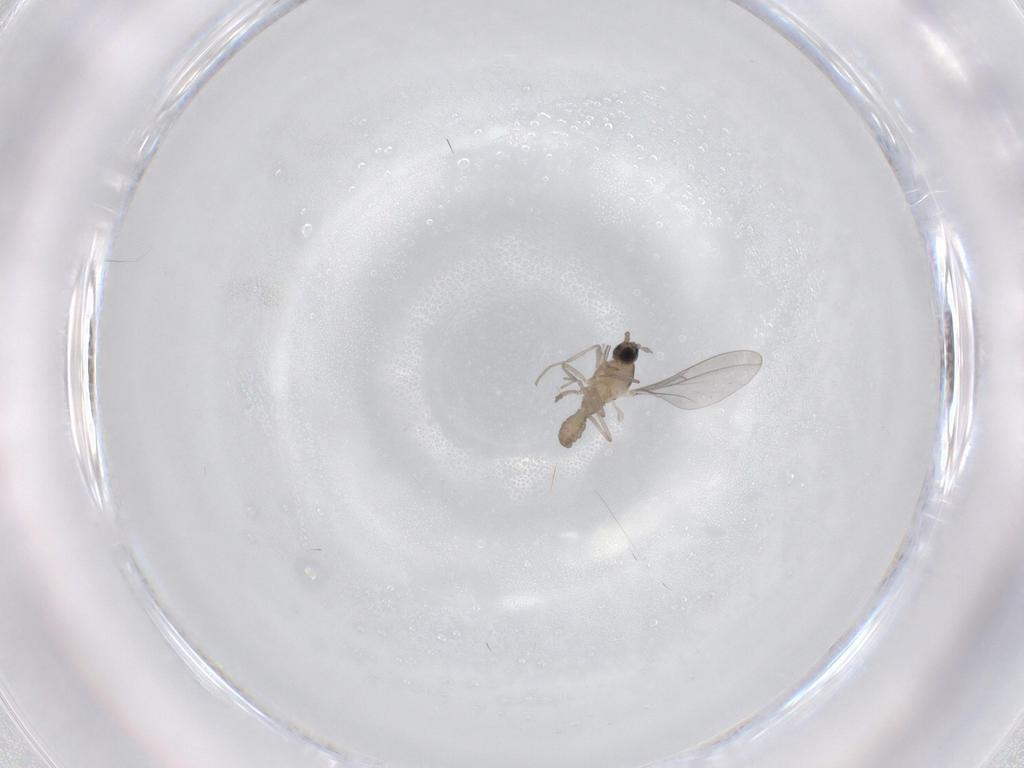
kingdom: Animalia
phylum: Arthropoda
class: Insecta
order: Diptera
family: Cecidomyiidae
